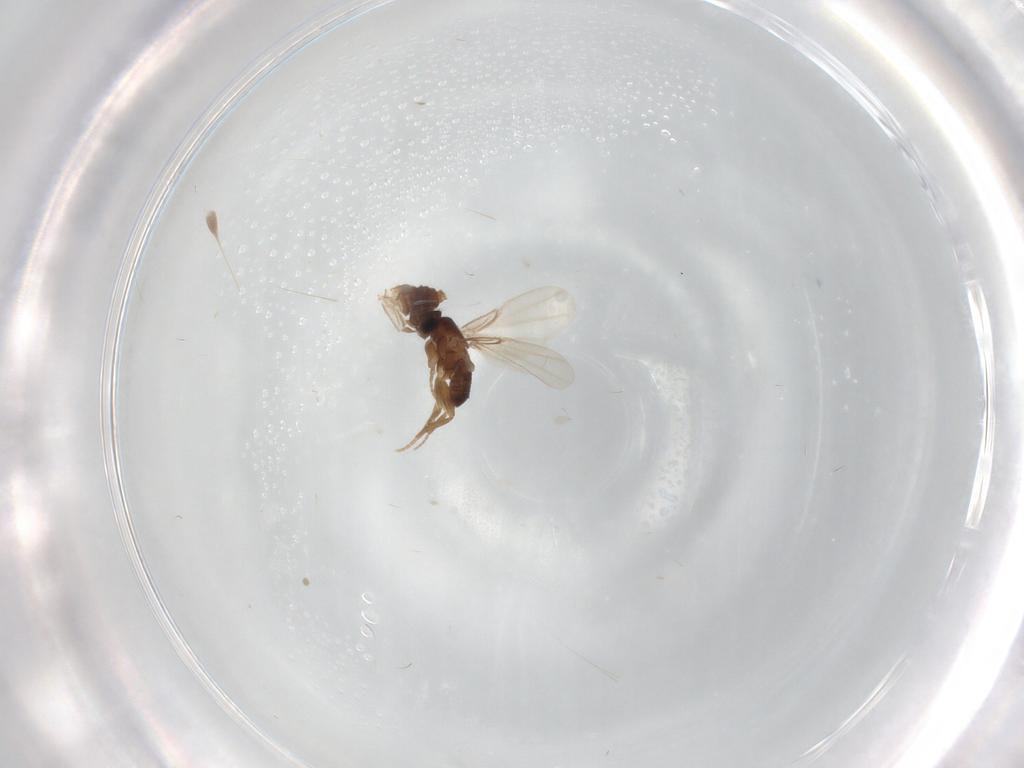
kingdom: Animalia
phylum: Arthropoda
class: Insecta
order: Diptera
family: Phoridae
